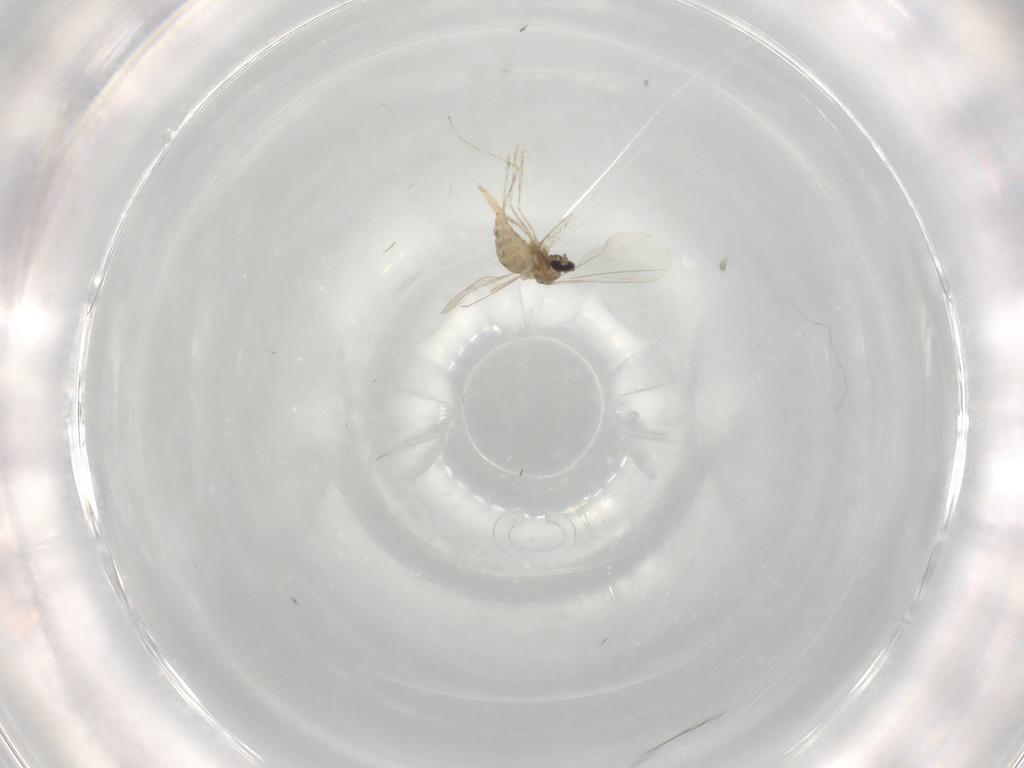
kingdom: Animalia
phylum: Arthropoda
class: Insecta
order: Diptera
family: Cecidomyiidae
